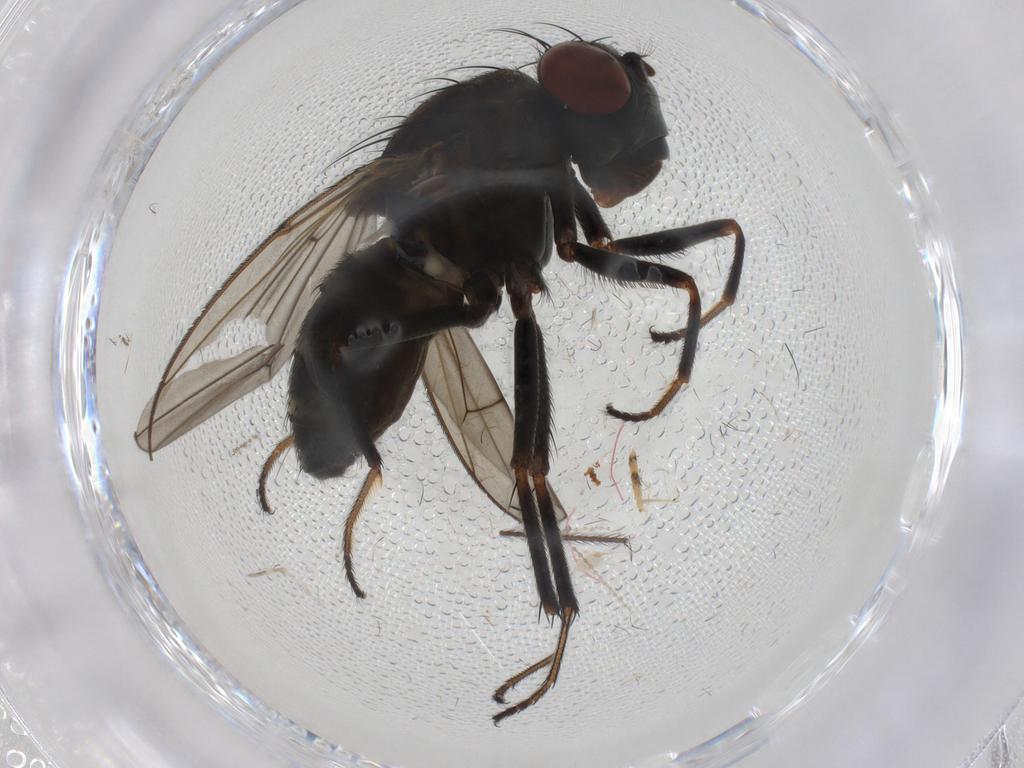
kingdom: Animalia
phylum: Arthropoda
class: Insecta
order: Diptera
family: Ephydridae
